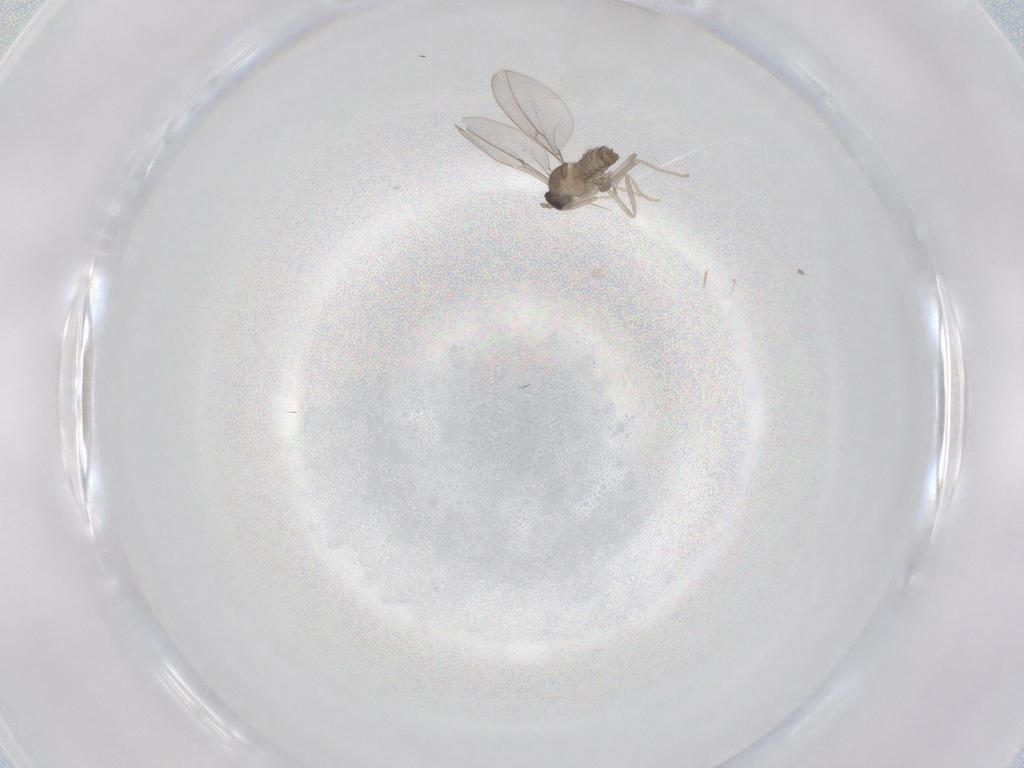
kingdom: Animalia
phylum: Arthropoda
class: Insecta
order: Diptera
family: Cecidomyiidae
